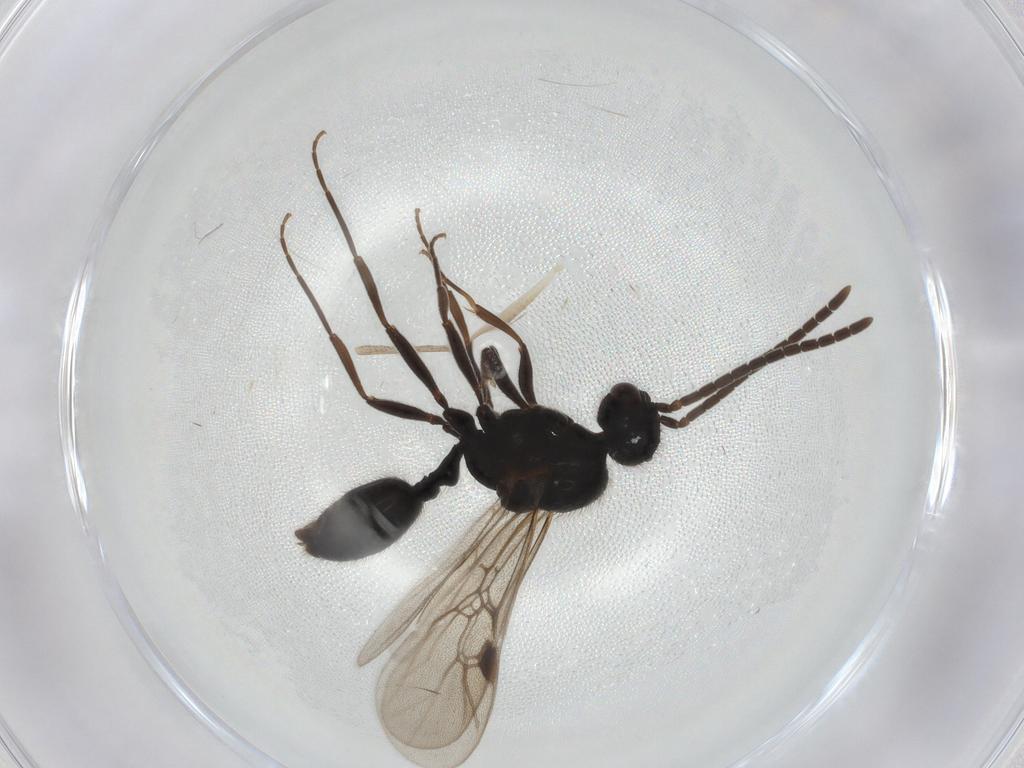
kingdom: Animalia
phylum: Arthropoda
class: Insecta
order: Hymenoptera
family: Formicidae
